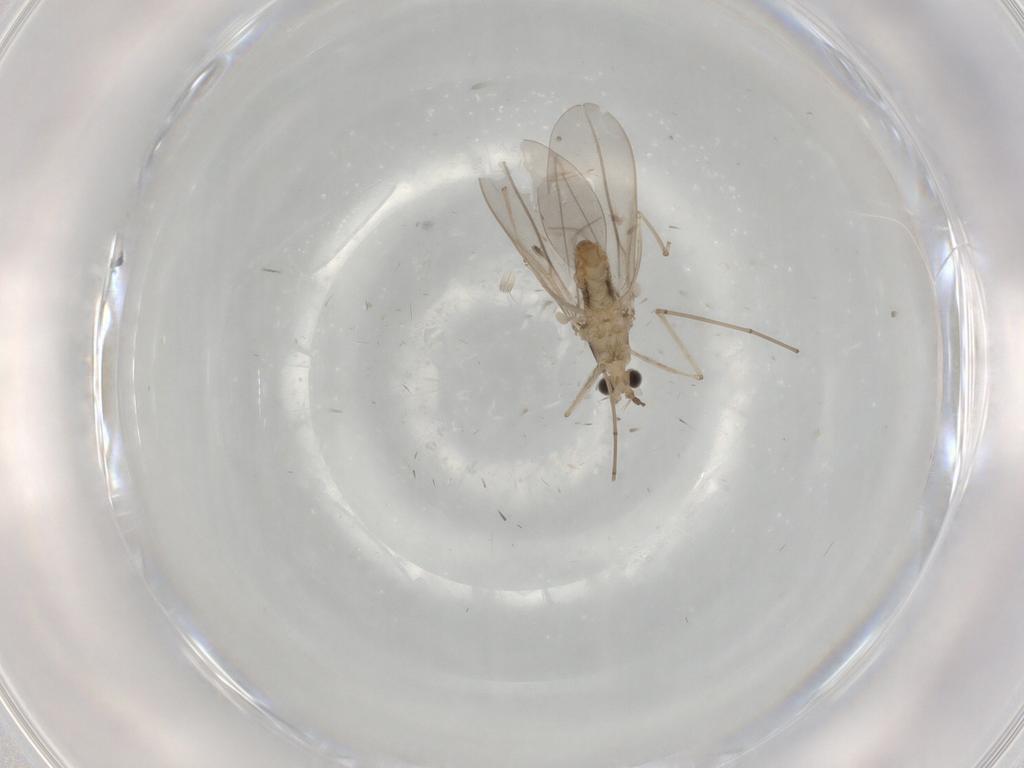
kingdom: Animalia
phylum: Arthropoda
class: Insecta
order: Diptera
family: Cecidomyiidae
